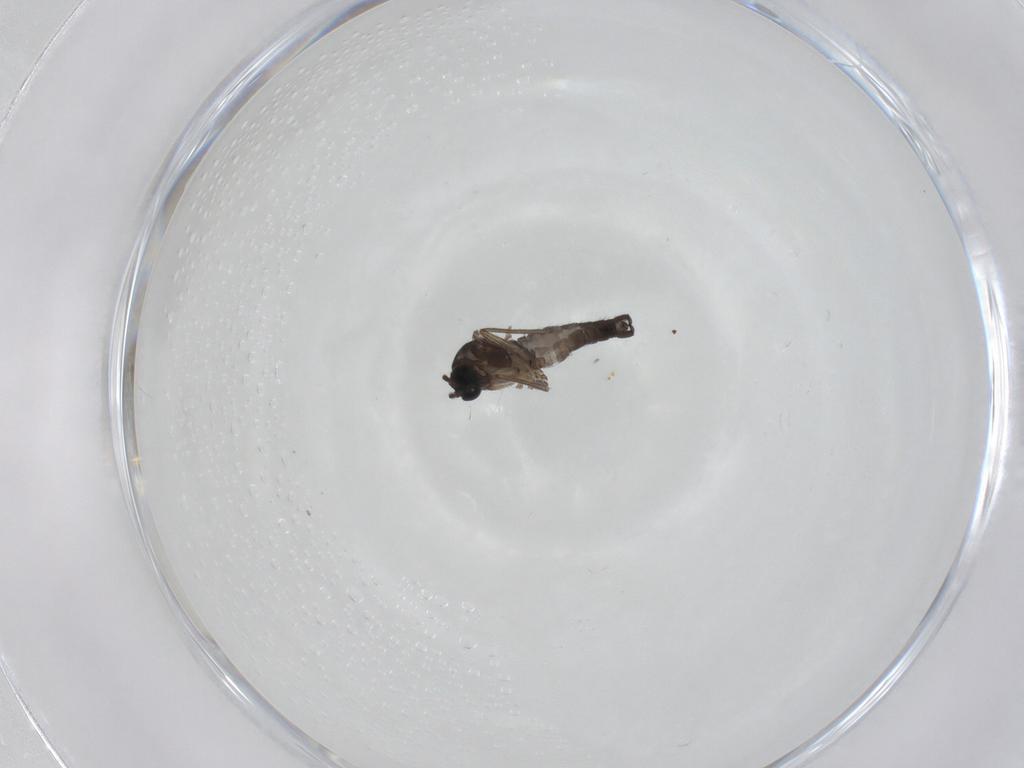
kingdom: Animalia
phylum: Arthropoda
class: Insecta
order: Diptera
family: Sciaridae
